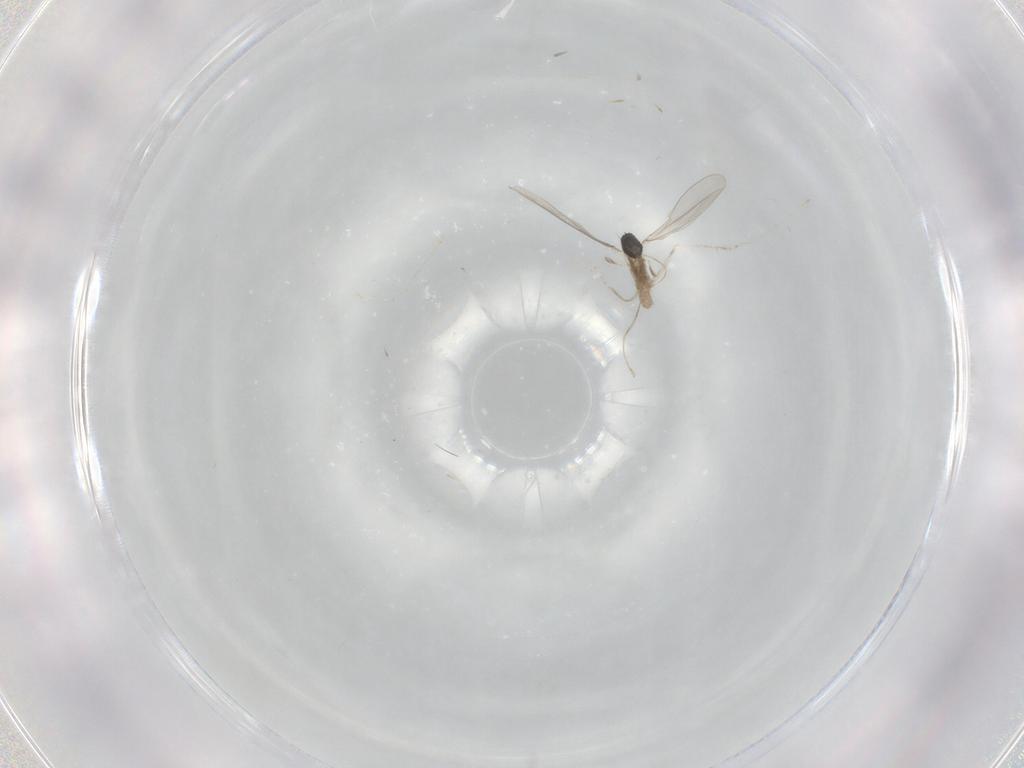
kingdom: Animalia
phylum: Arthropoda
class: Insecta
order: Diptera
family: Cecidomyiidae
